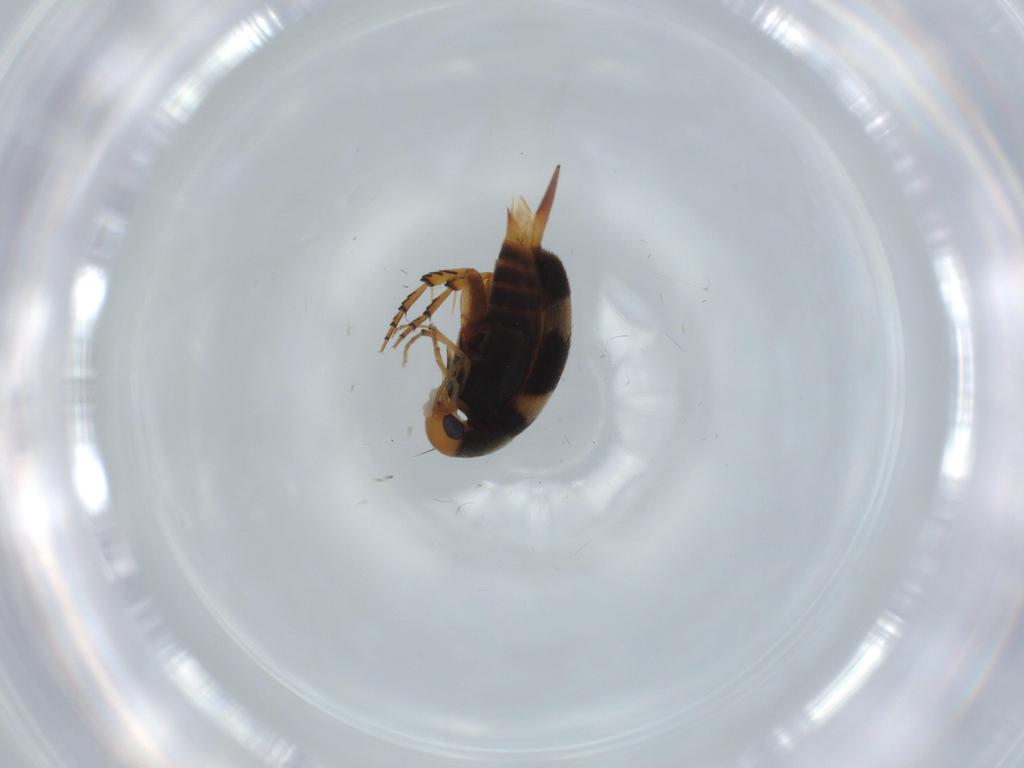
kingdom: Animalia
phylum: Arthropoda
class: Insecta
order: Coleoptera
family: Mordellidae
